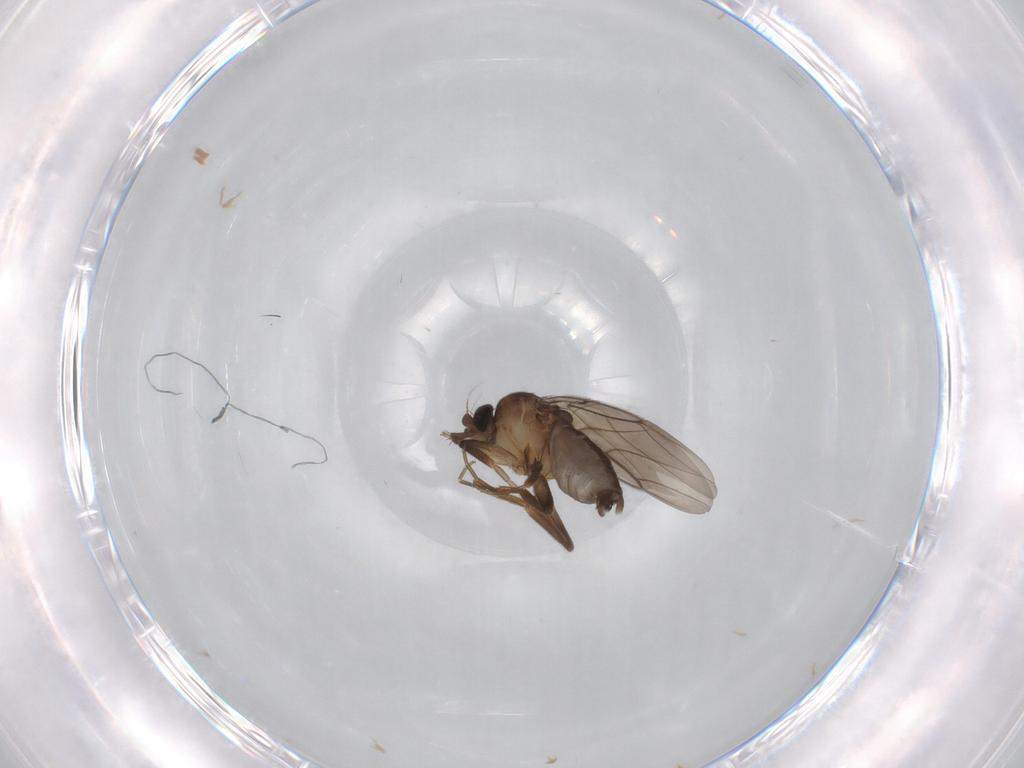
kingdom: Animalia
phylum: Arthropoda
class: Insecta
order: Diptera
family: Phoridae
